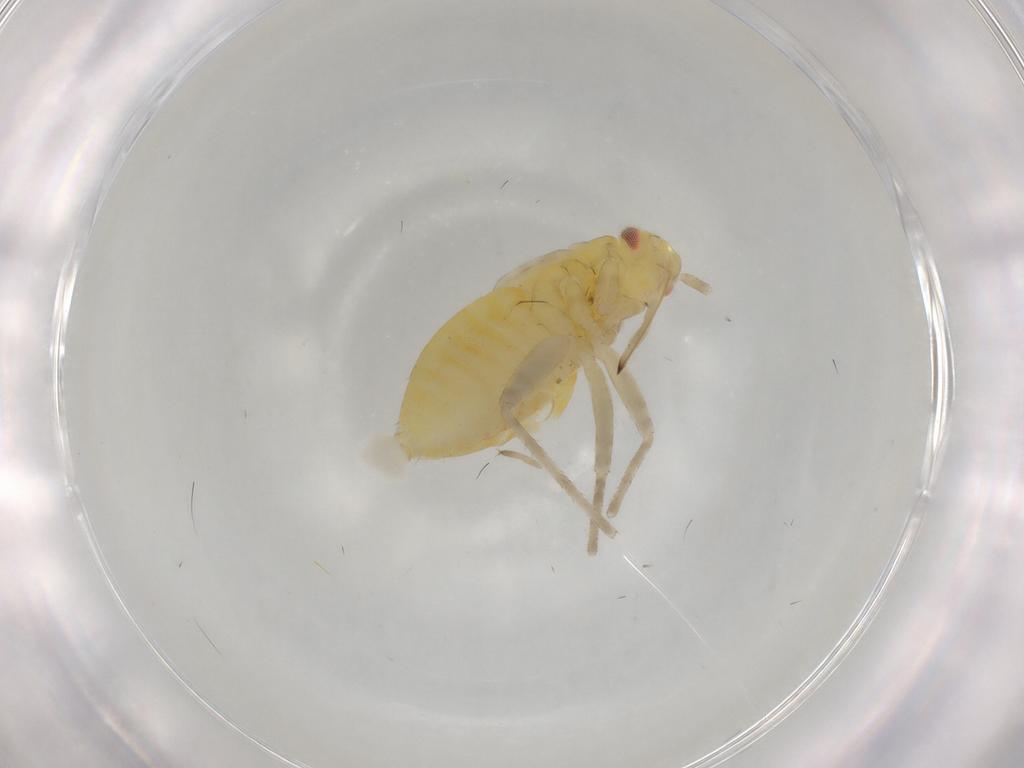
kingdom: Animalia
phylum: Arthropoda
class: Insecta
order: Hemiptera
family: Miridae
